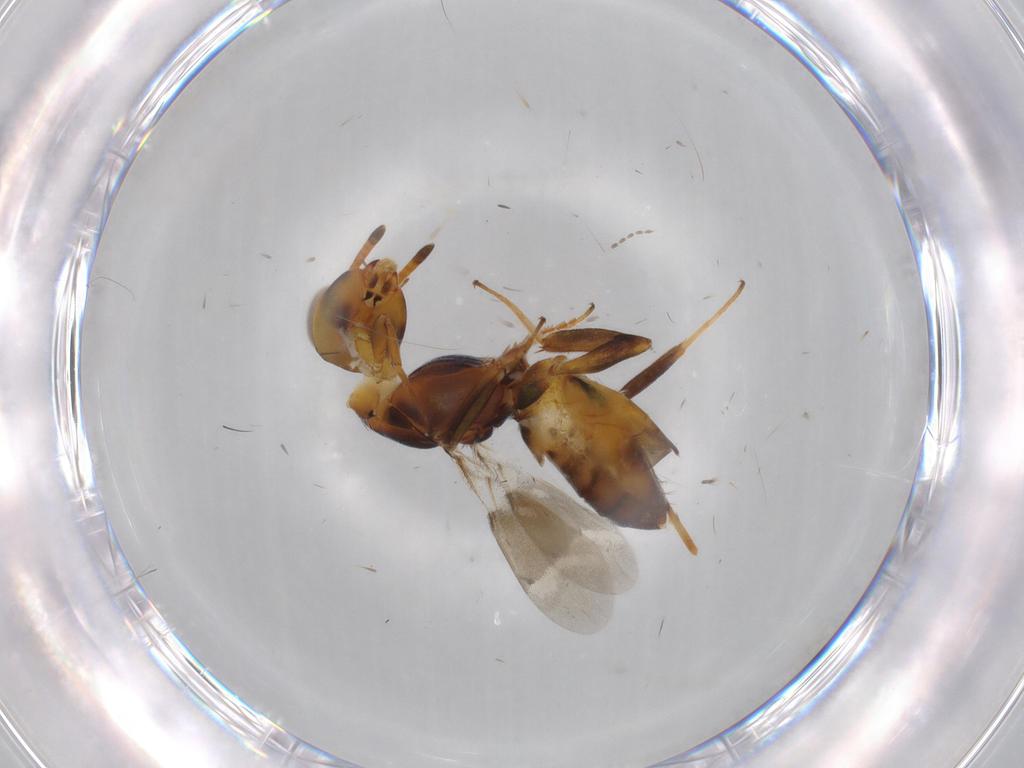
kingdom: Animalia
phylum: Arthropoda
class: Insecta
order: Hymenoptera
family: Eupelmidae
